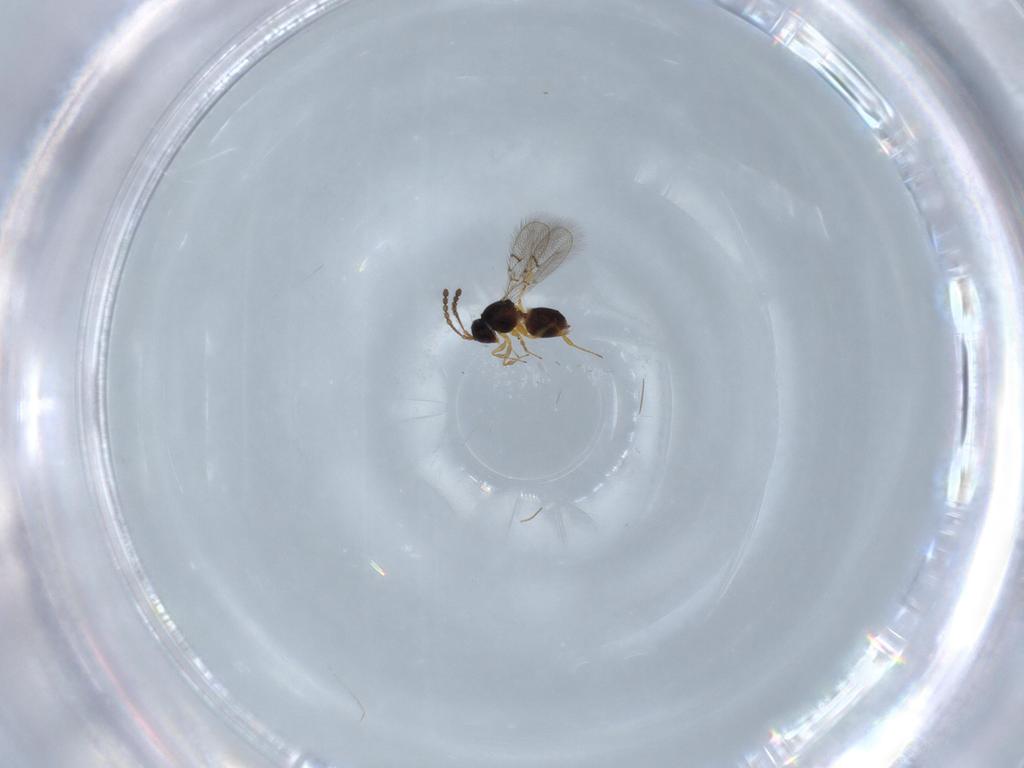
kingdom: Animalia
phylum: Arthropoda
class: Insecta
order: Hymenoptera
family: Figitidae
